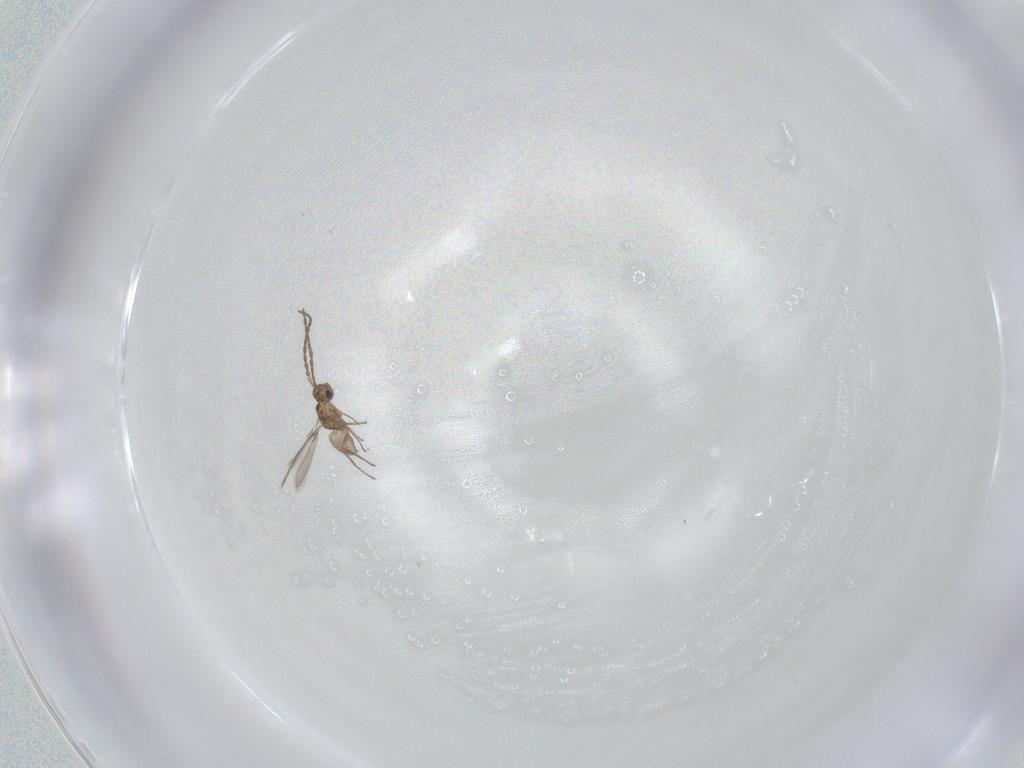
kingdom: Animalia
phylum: Arthropoda
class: Insecta
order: Hymenoptera
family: Mymaridae
